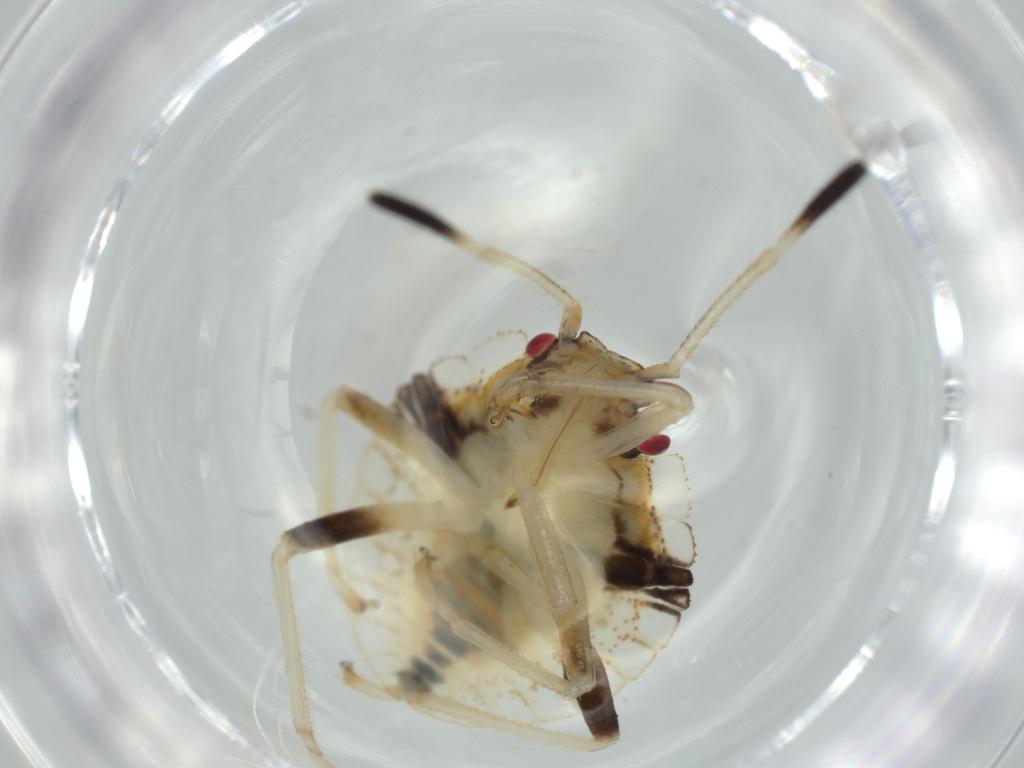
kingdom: Animalia
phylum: Arthropoda
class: Insecta
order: Hemiptera
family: Pentatomidae
